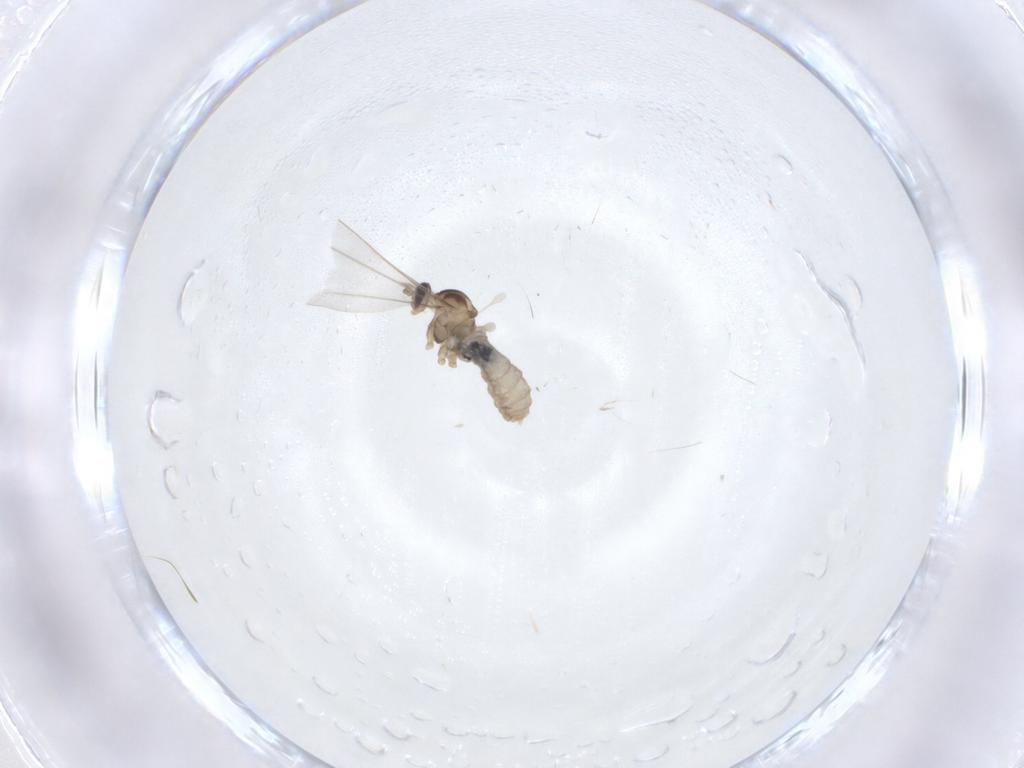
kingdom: Animalia
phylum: Arthropoda
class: Insecta
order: Diptera
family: Cecidomyiidae
